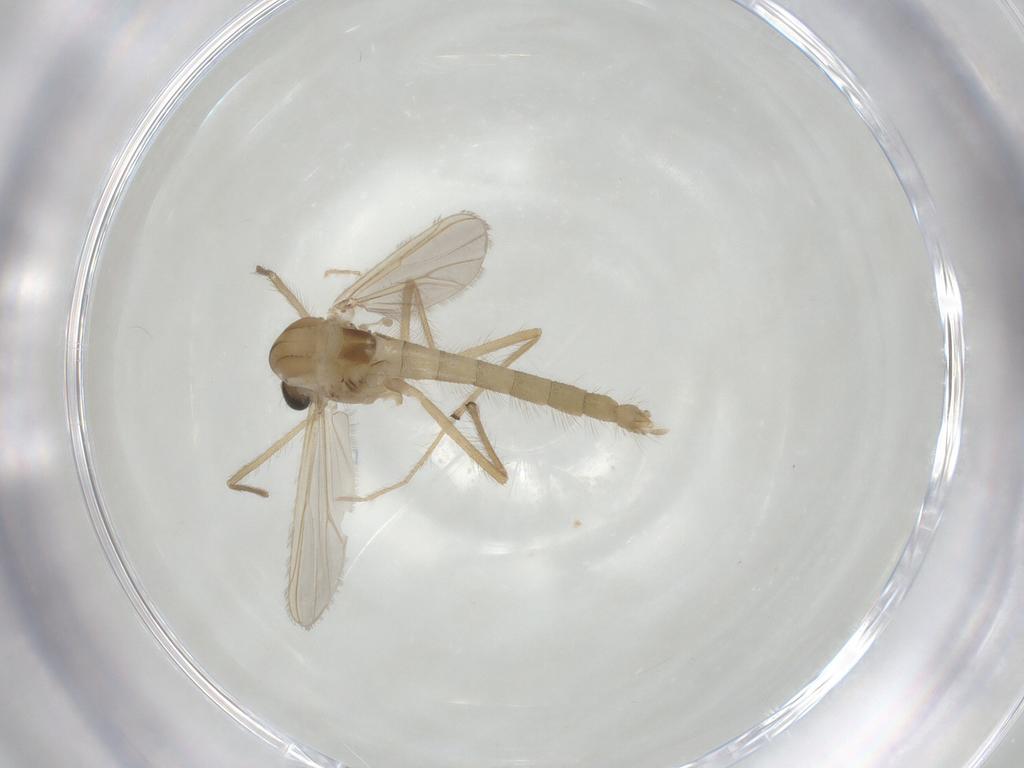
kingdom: Animalia
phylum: Arthropoda
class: Insecta
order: Diptera
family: Chironomidae
